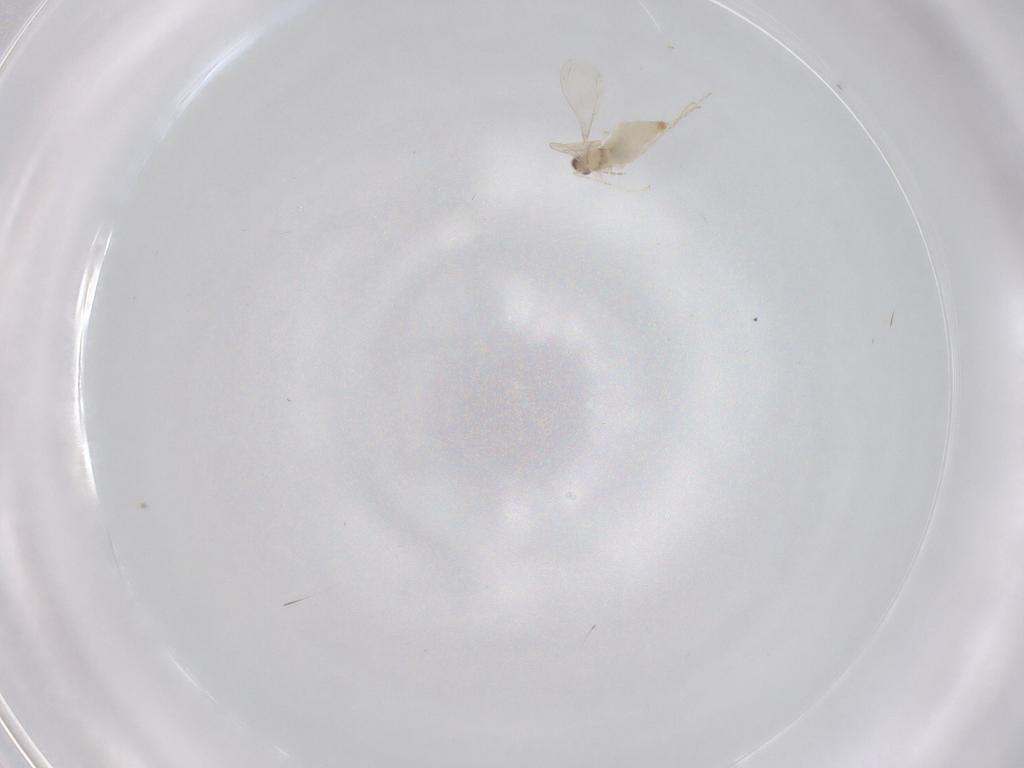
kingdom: Animalia
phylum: Arthropoda
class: Insecta
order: Diptera
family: Cecidomyiidae
